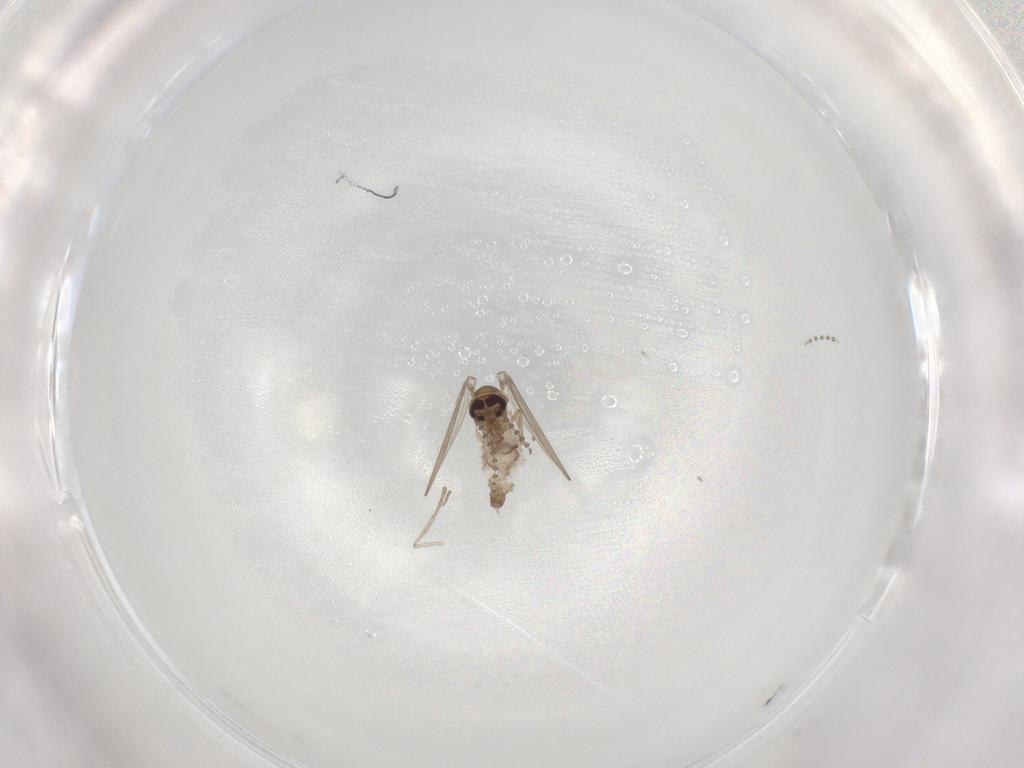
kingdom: Animalia
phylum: Arthropoda
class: Insecta
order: Diptera
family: Psychodidae
